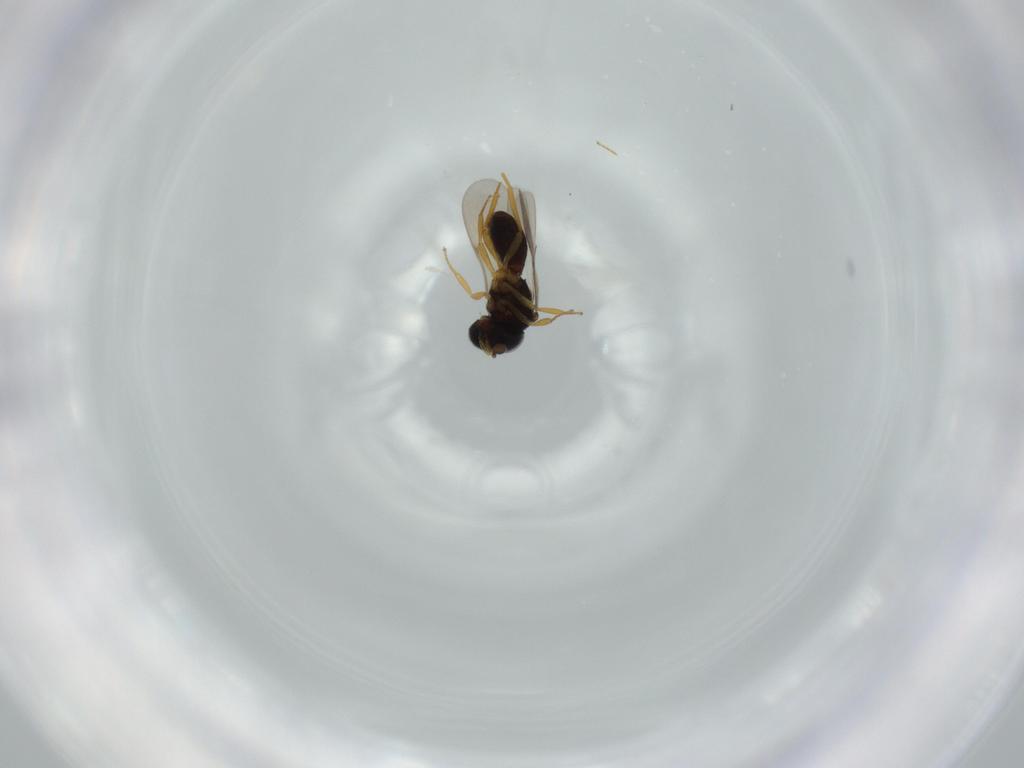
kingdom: Animalia
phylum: Arthropoda
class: Insecta
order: Hymenoptera
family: Scelionidae
